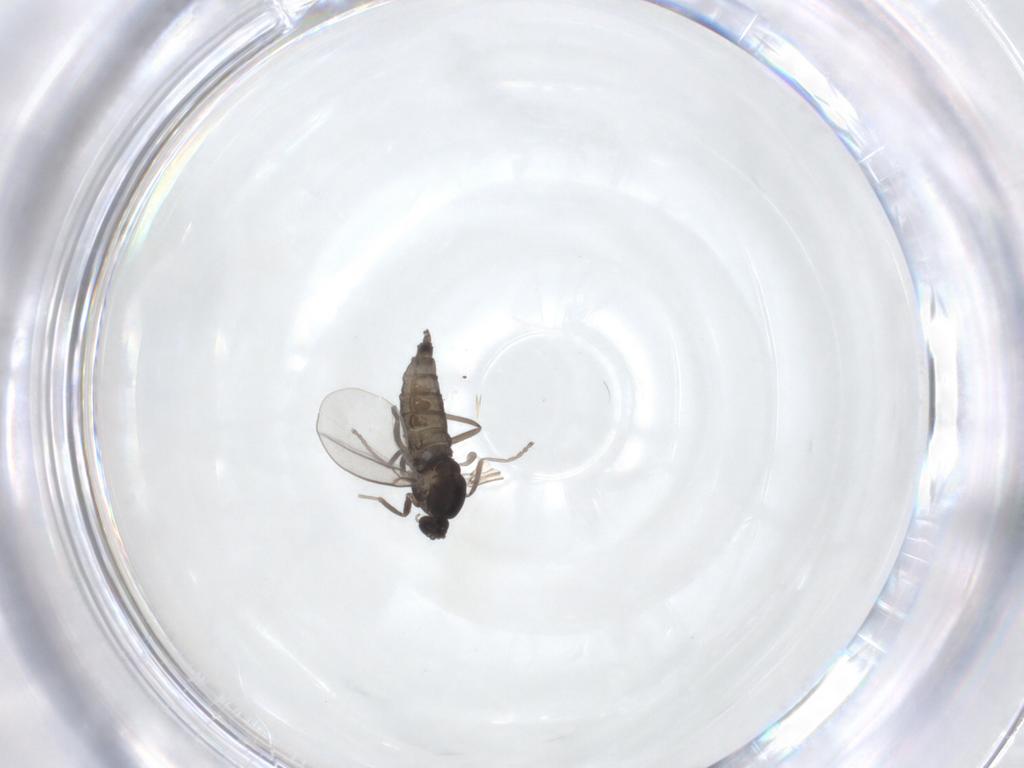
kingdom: Animalia
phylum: Arthropoda
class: Insecta
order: Diptera
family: Cecidomyiidae
